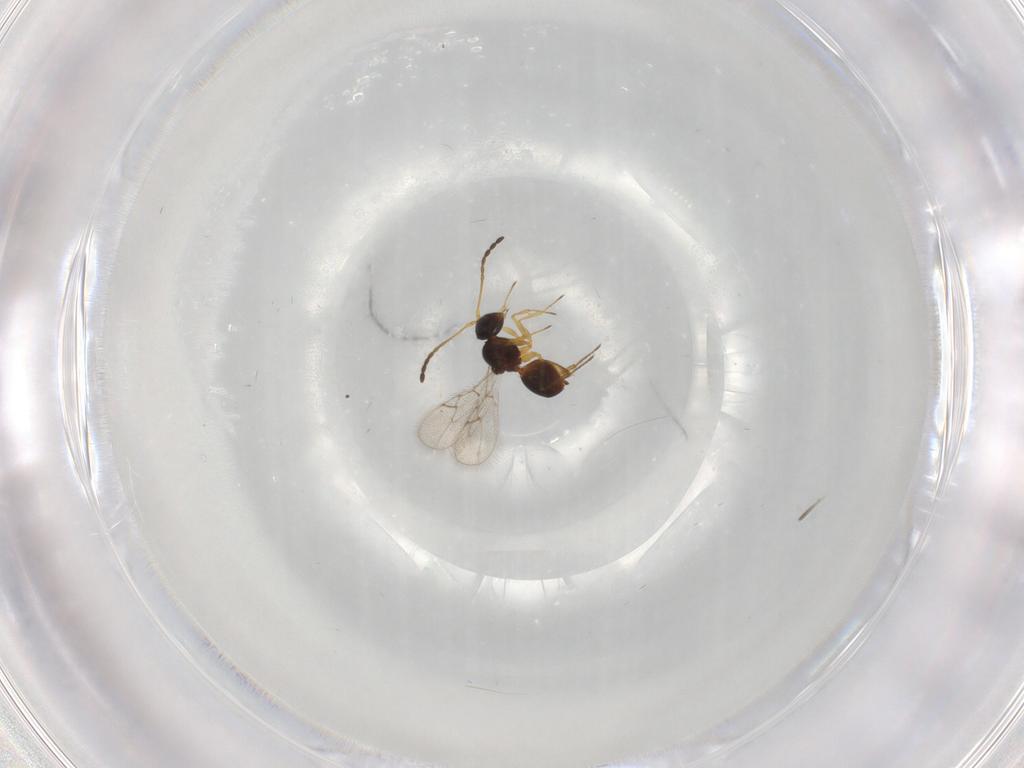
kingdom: Animalia
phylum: Arthropoda
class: Insecta
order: Hymenoptera
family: Figitidae
